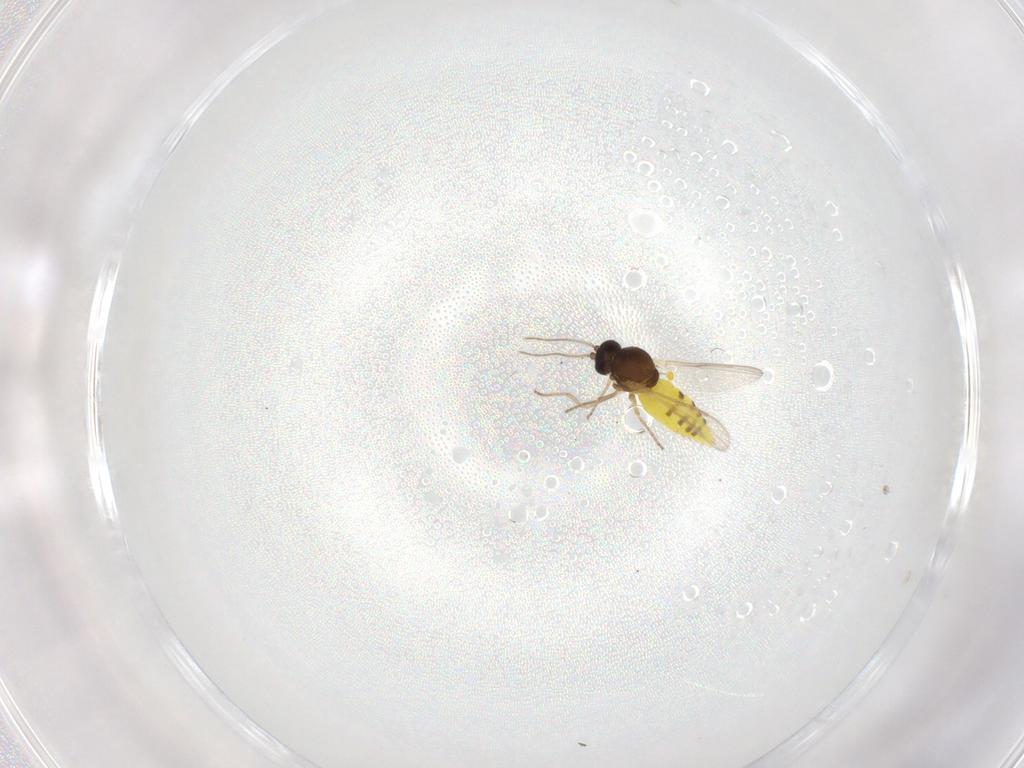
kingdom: Animalia
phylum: Arthropoda
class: Insecta
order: Diptera
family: Ceratopogonidae
